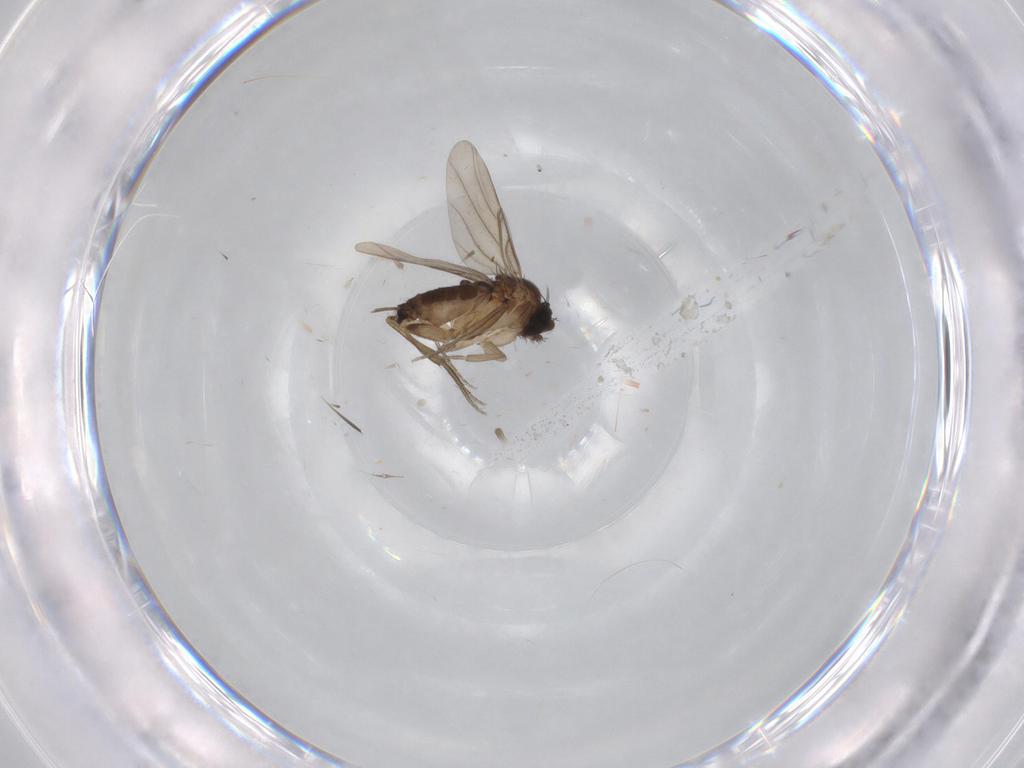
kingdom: Animalia
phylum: Arthropoda
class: Insecta
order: Diptera
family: Phoridae
